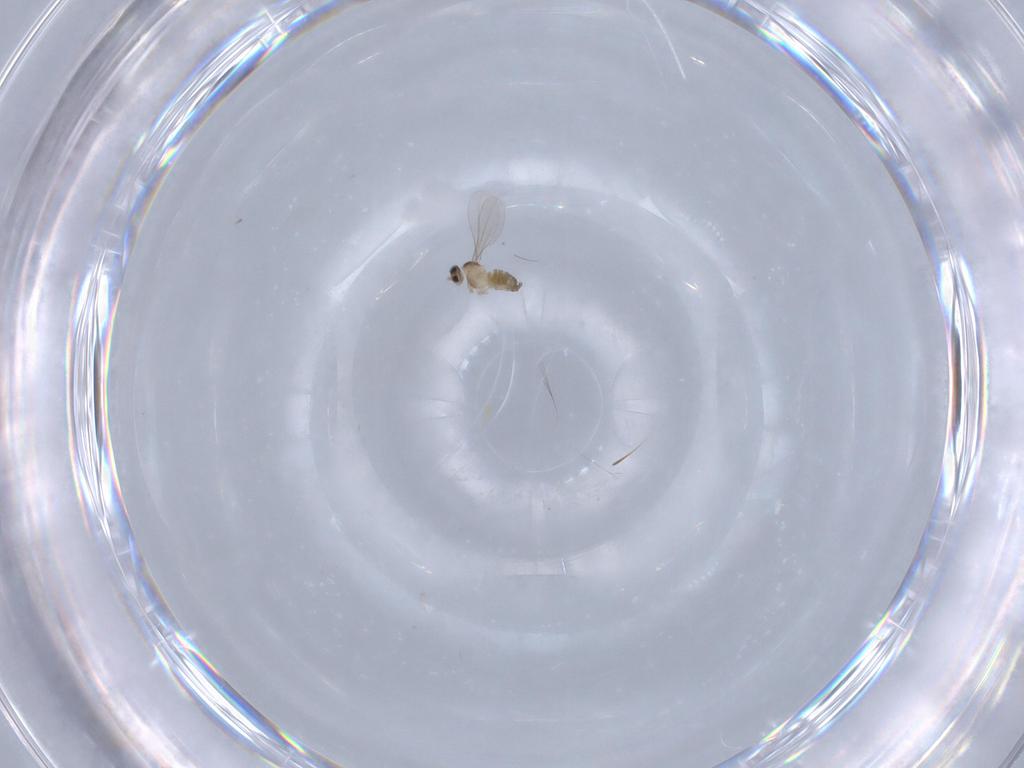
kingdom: Animalia
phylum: Arthropoda
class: Insecta
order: Diptera
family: Cecidomyiidae
